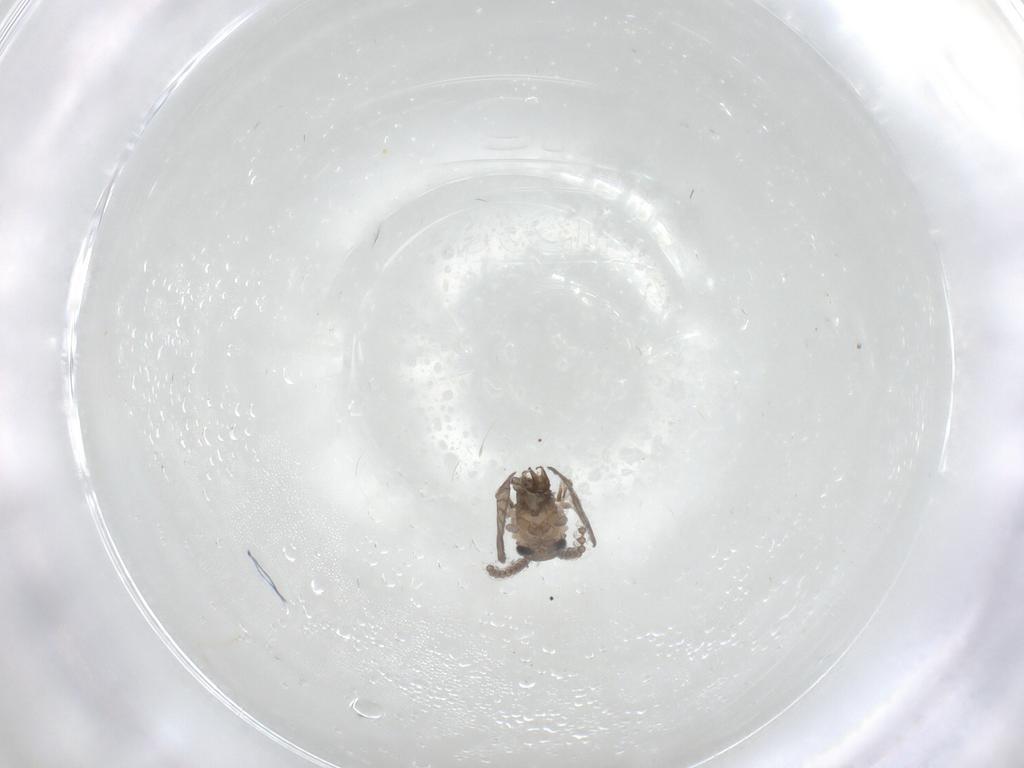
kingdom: Animalia
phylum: Arthropoda
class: Insecta
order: Diptera
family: Psychodidae
